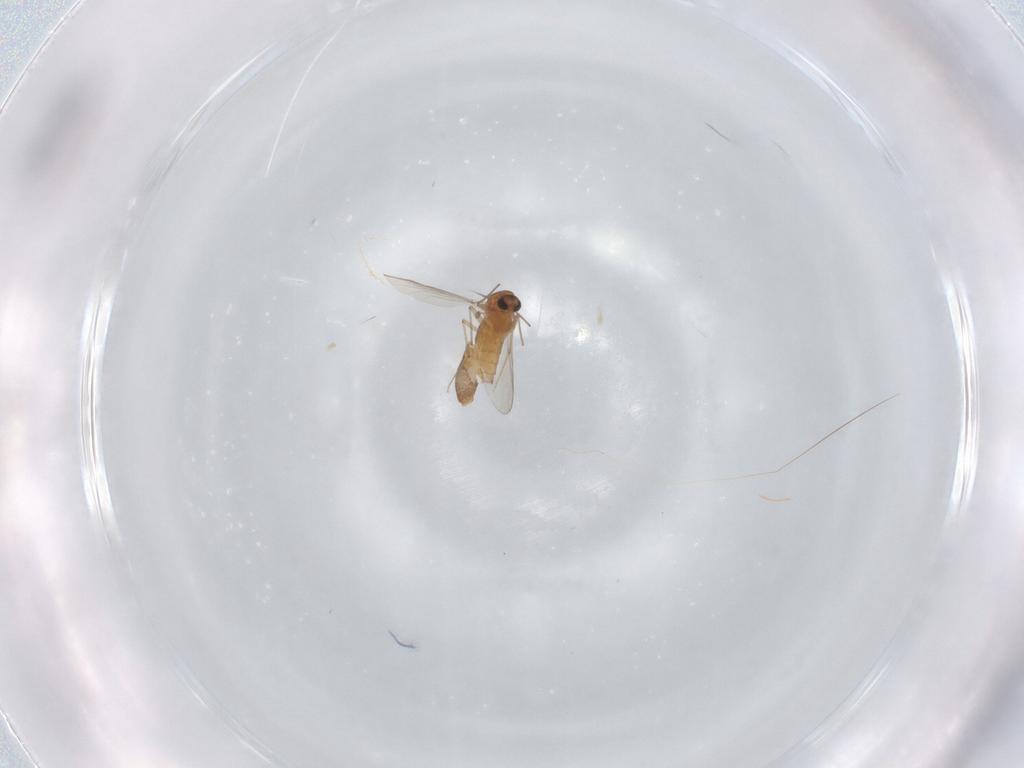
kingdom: Animalia
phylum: Arthropoda
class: Insecta
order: Diptera
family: Chironomidae
